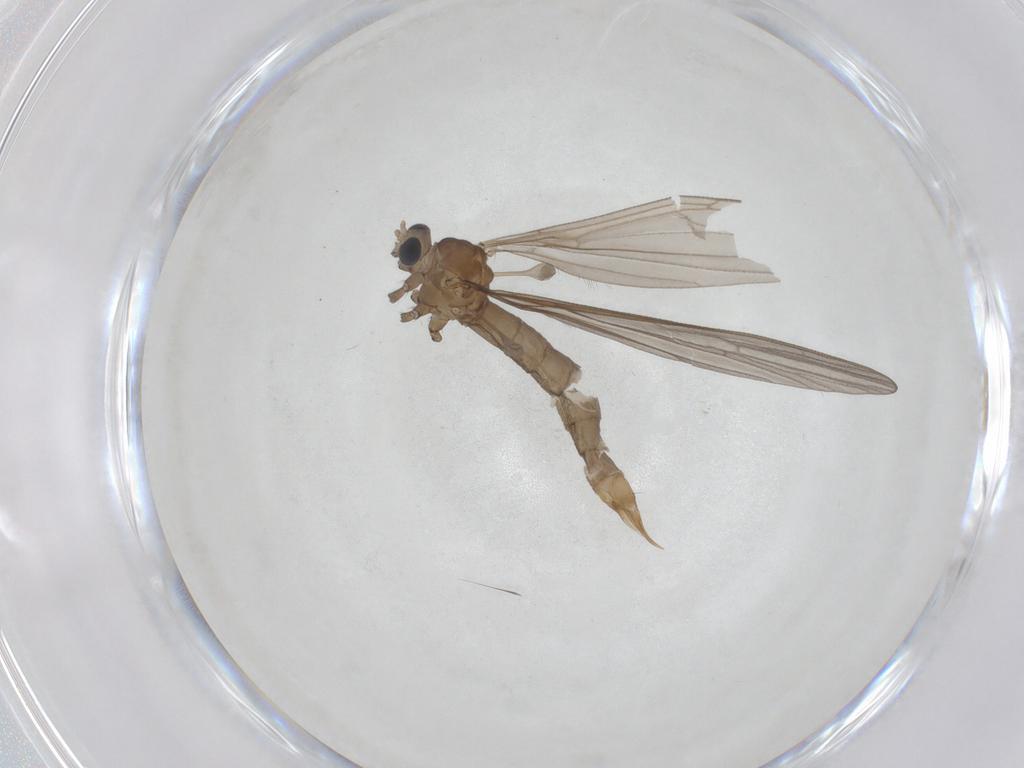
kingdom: Animalia
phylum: Arthropoda
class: Insecta
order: Diptera
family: Limoniidae
